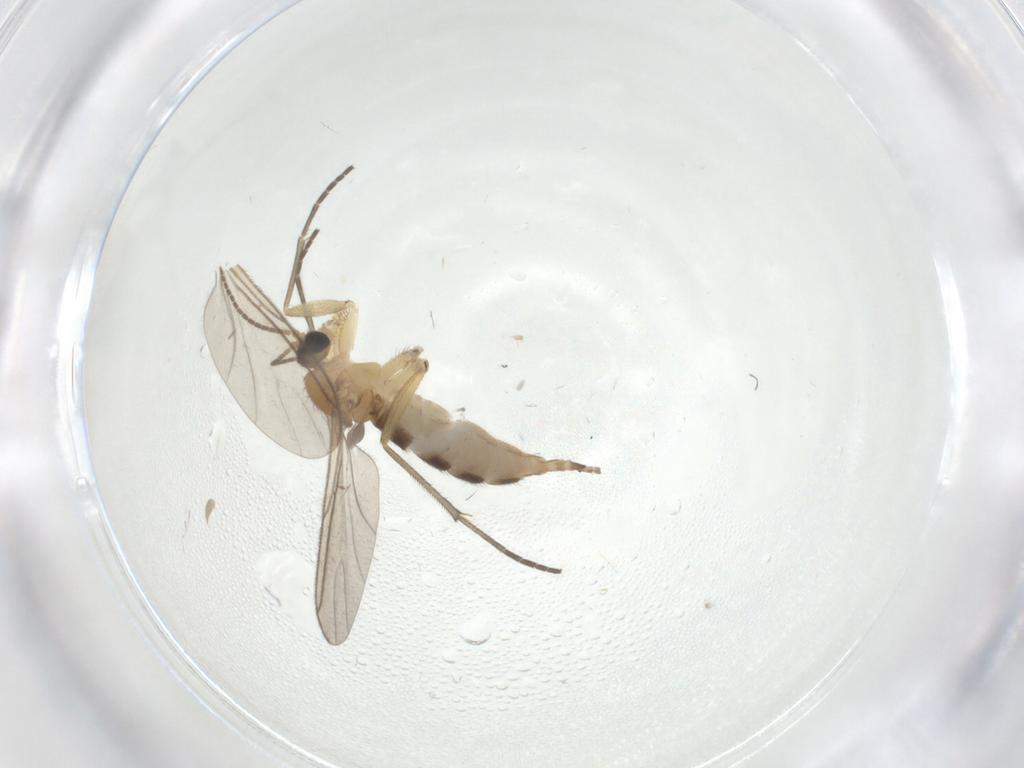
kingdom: Animalia
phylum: Arthropoda
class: Insecta
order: Diptera
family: Sciaridae
